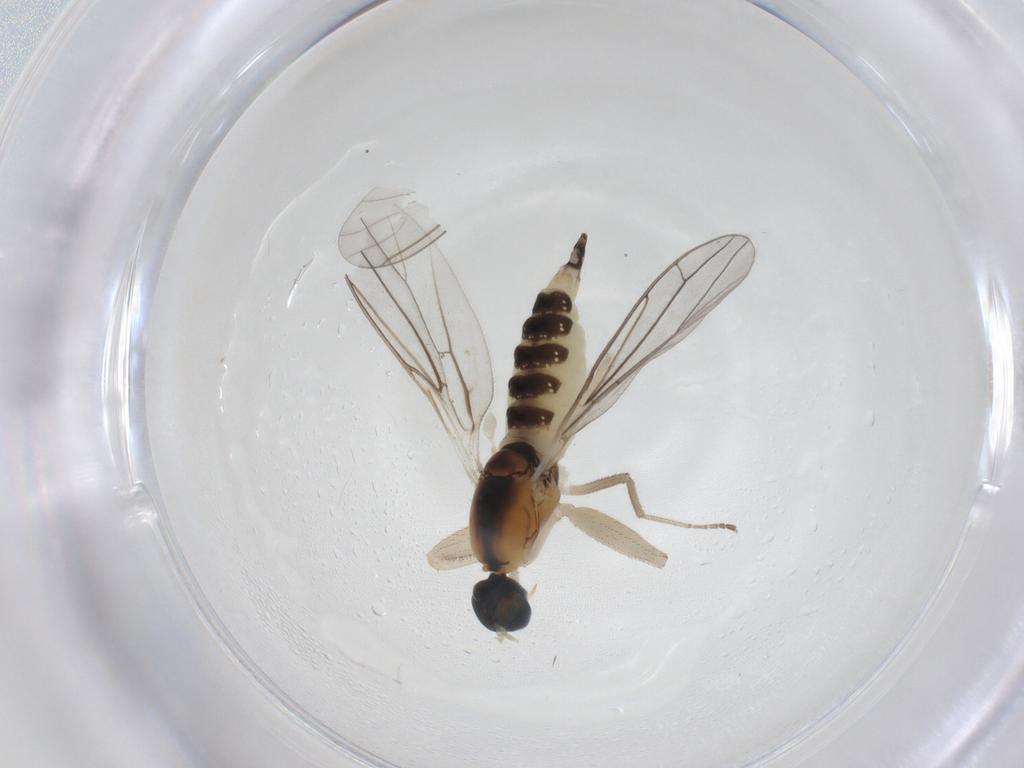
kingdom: Animalia
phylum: Arthropoda
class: Insecta
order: Diptera
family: Empididae
